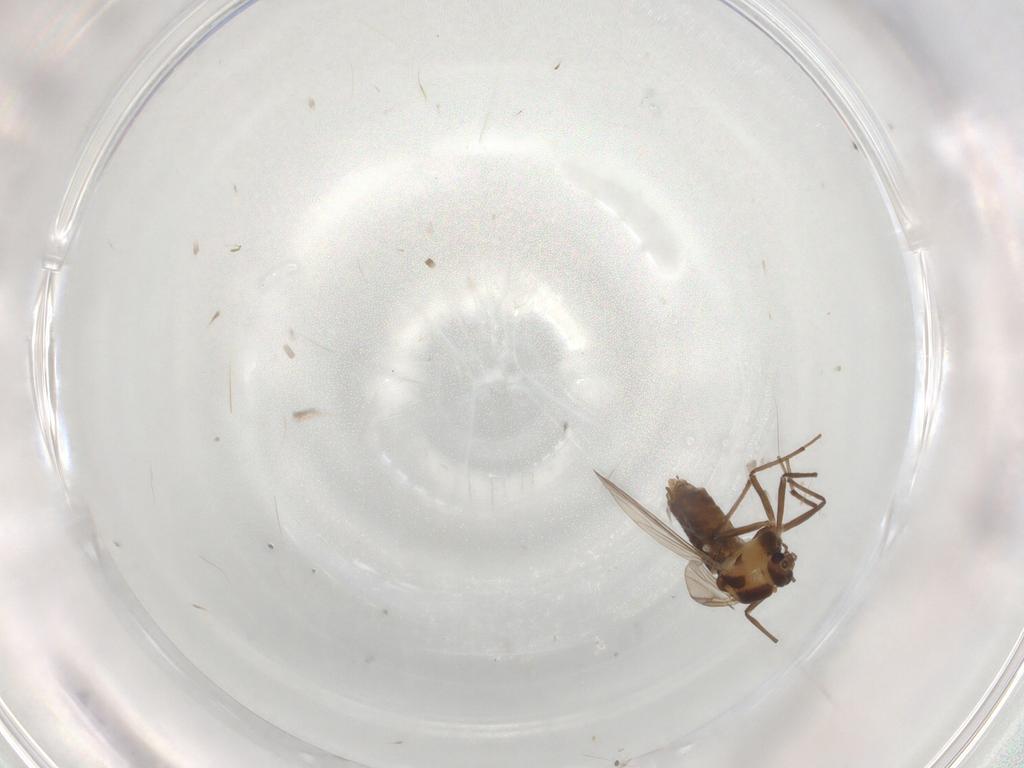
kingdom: Animalia
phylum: Arthropoda
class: Insecta
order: Diptera
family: Chironomidae
